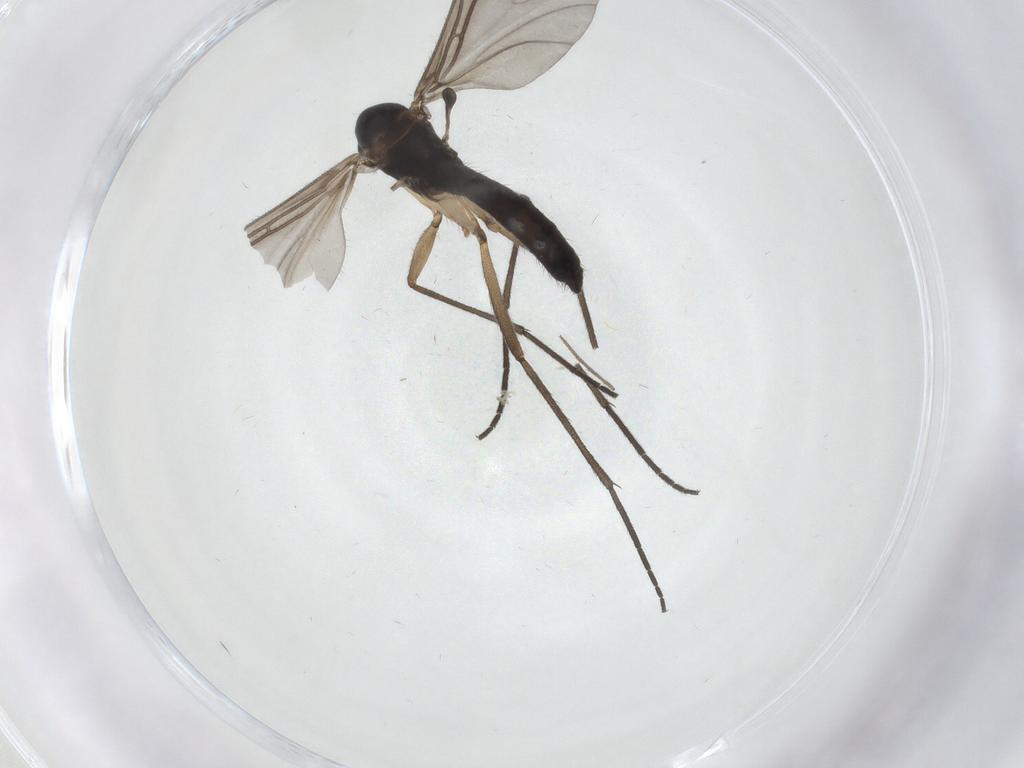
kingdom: Animalia
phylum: Arthropoda
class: Insecta
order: Diptera
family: Sciaridae
